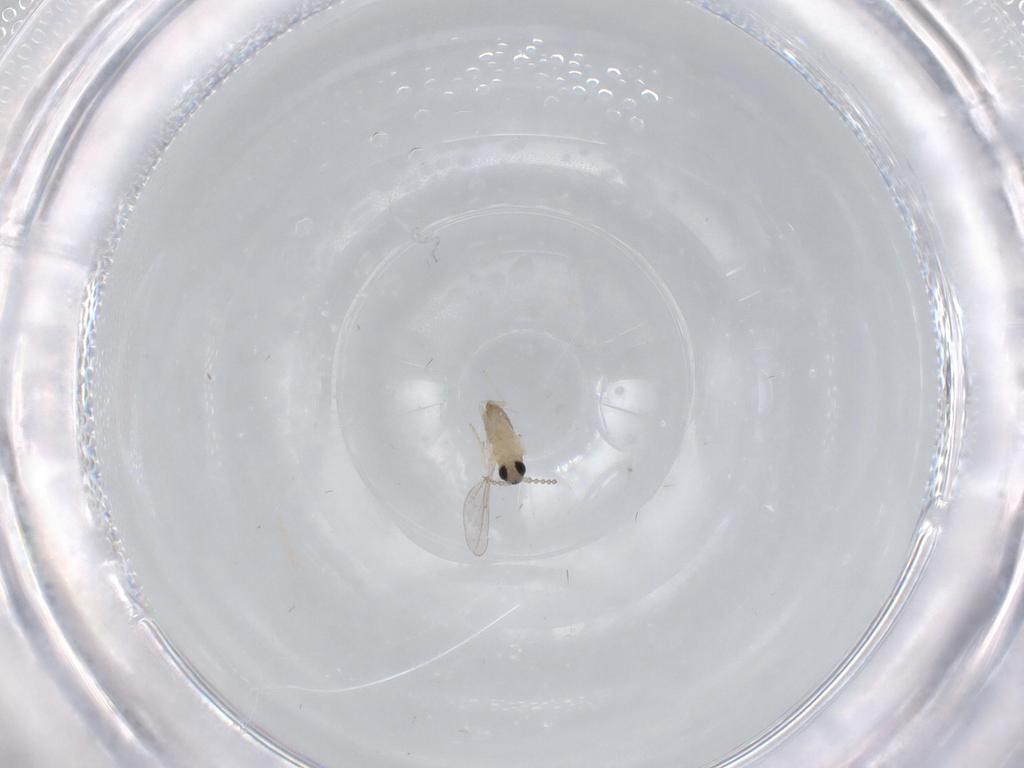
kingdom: Animalia
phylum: Arthropoda
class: Insecta
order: Diptera
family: Cecidomyiidae
